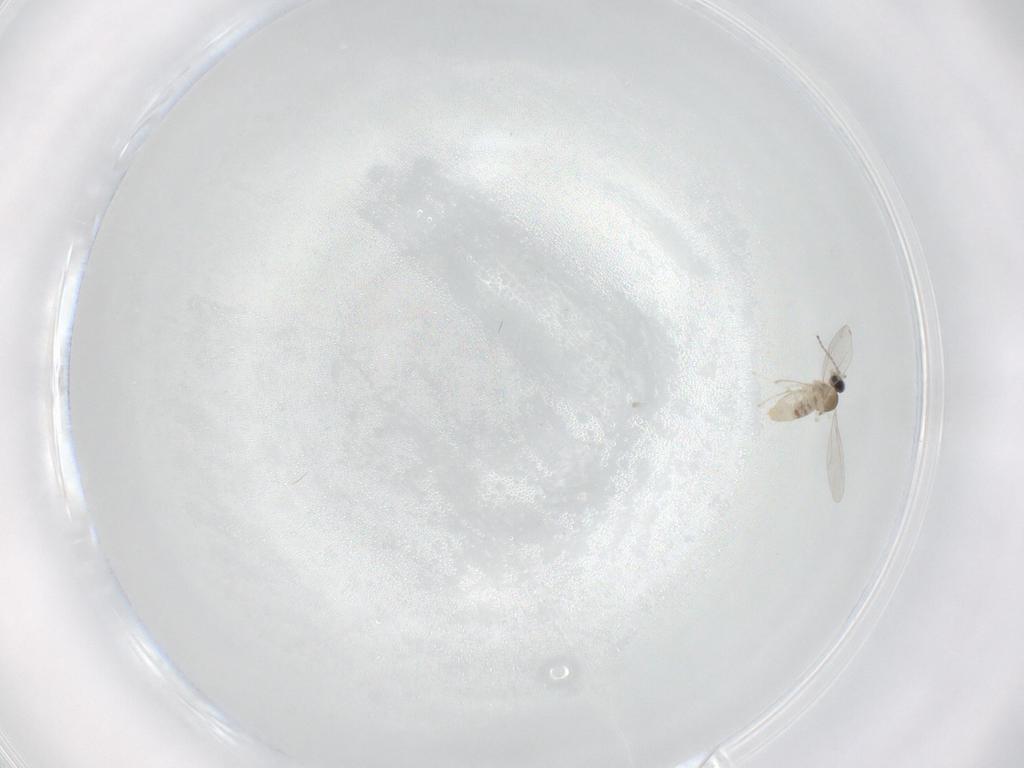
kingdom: Animalia
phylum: Arthropoda
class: Insecta
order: Diptera
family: Cecidomyiidae
